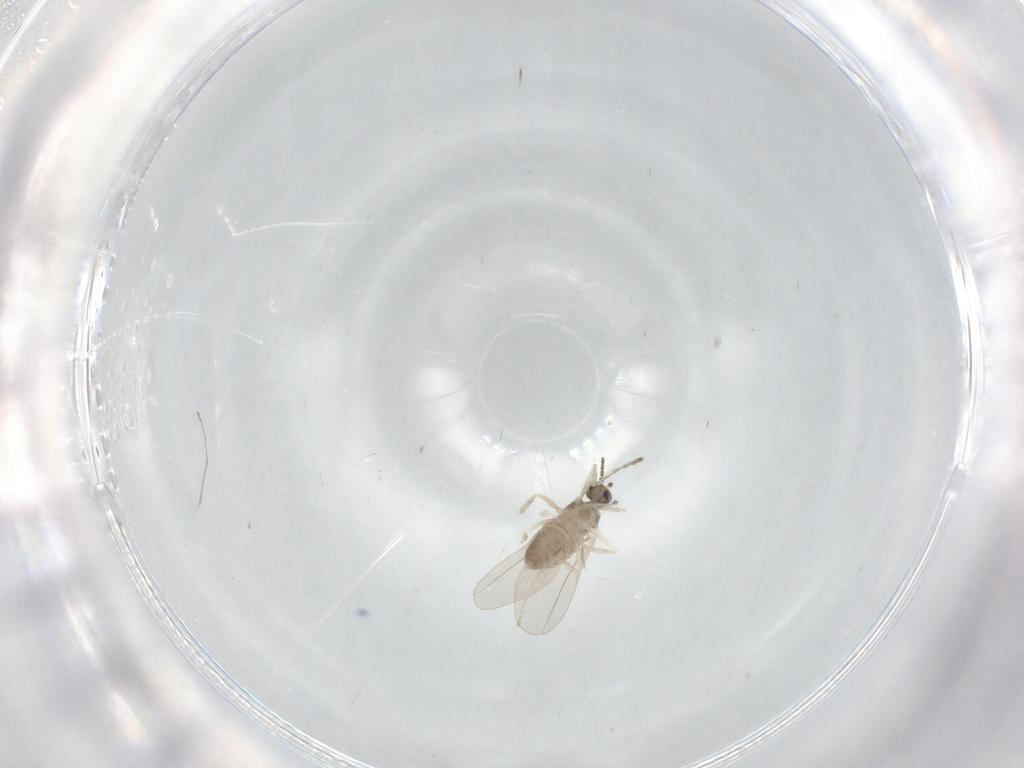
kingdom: Animalia
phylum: Arthropoda
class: Insecta
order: Diptera
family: Cecidomyiidae
